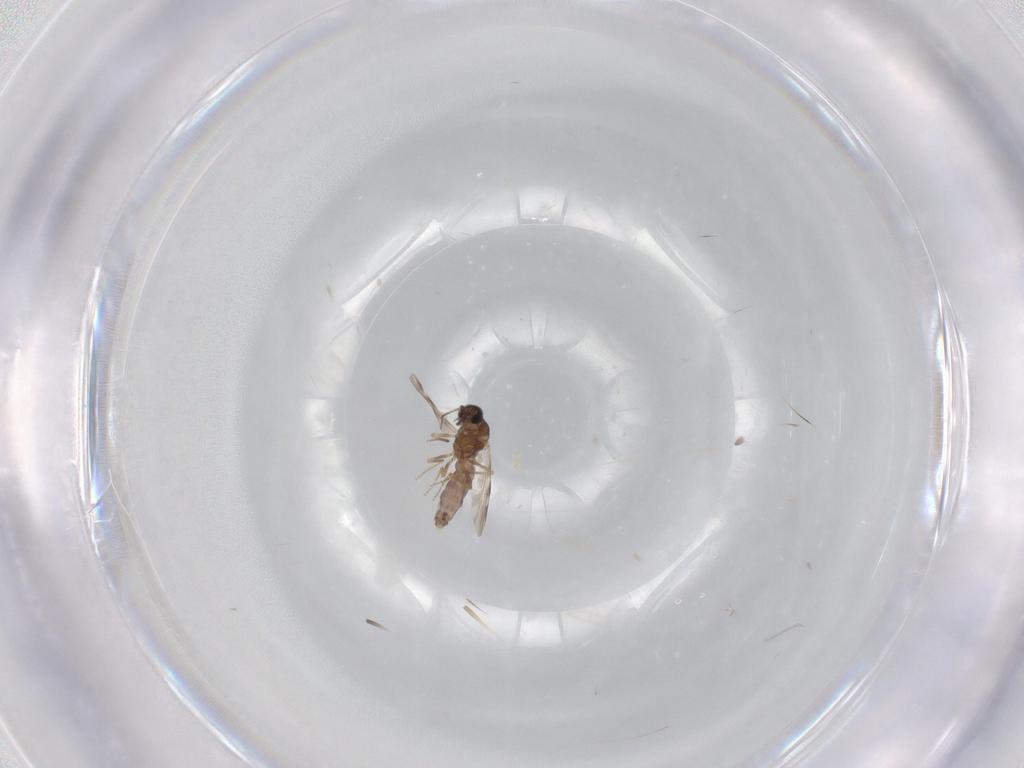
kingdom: Animalia
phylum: Arthropoda
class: Insecta
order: Diptera
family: Ceratopogonidae
